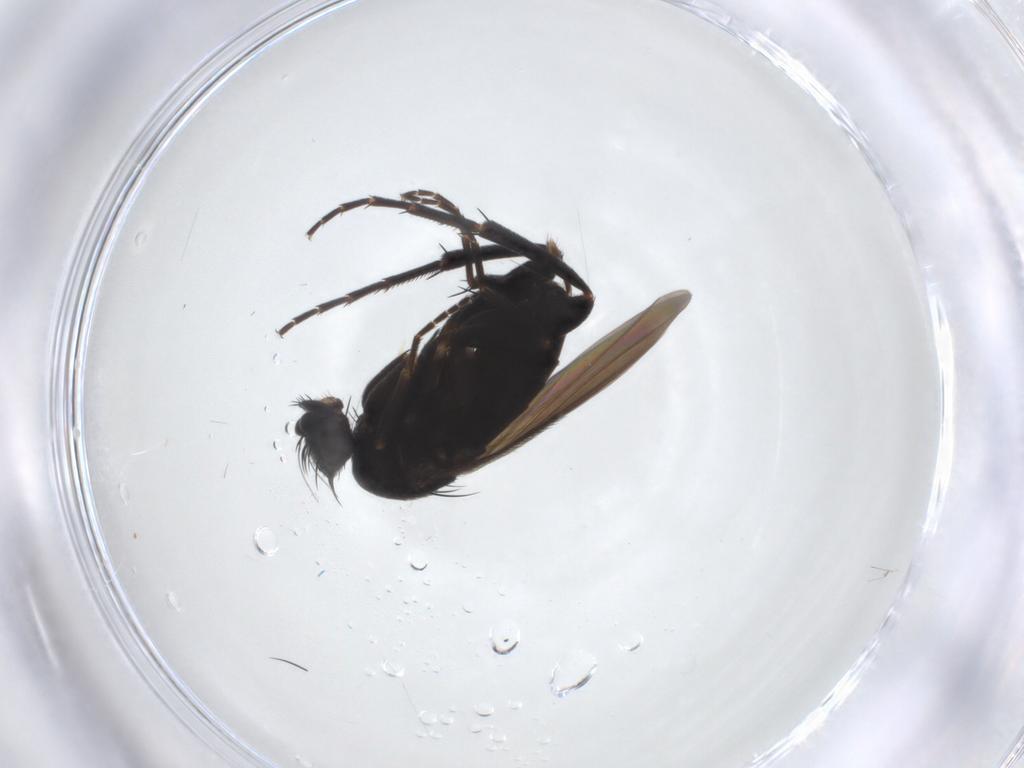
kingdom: Animalia
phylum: Arthropoda
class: Insecta
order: Diptera
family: Phoridae
